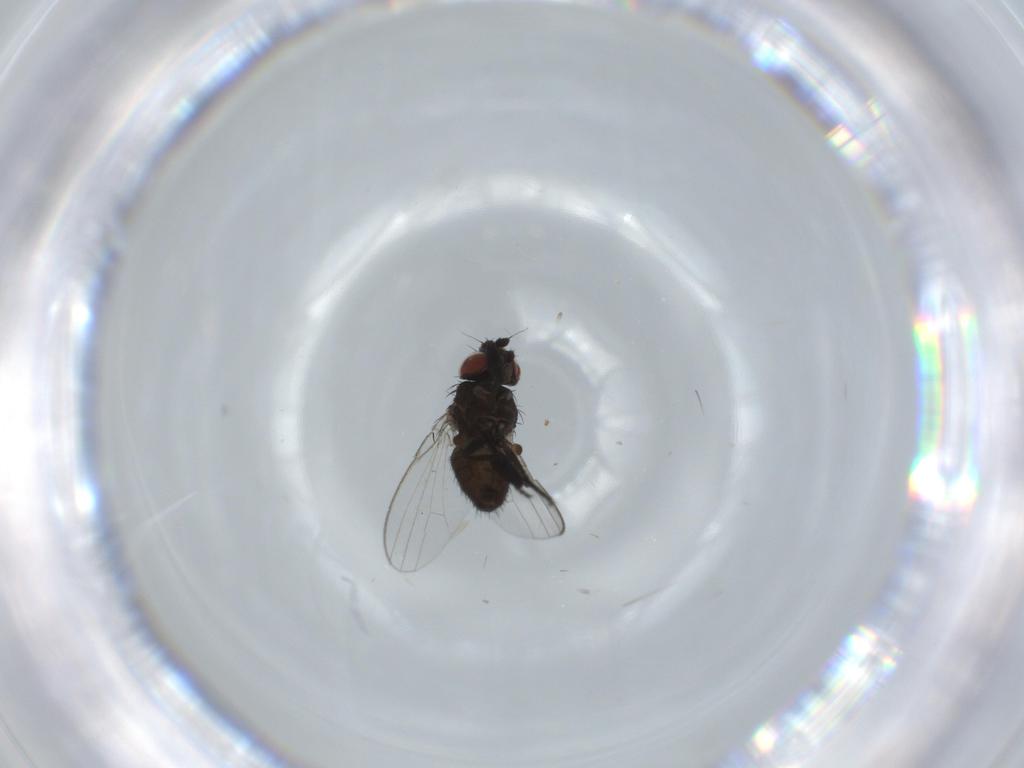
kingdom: Animalia
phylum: Arthropoda
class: Insecta
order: Diptera
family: Milichiidae
